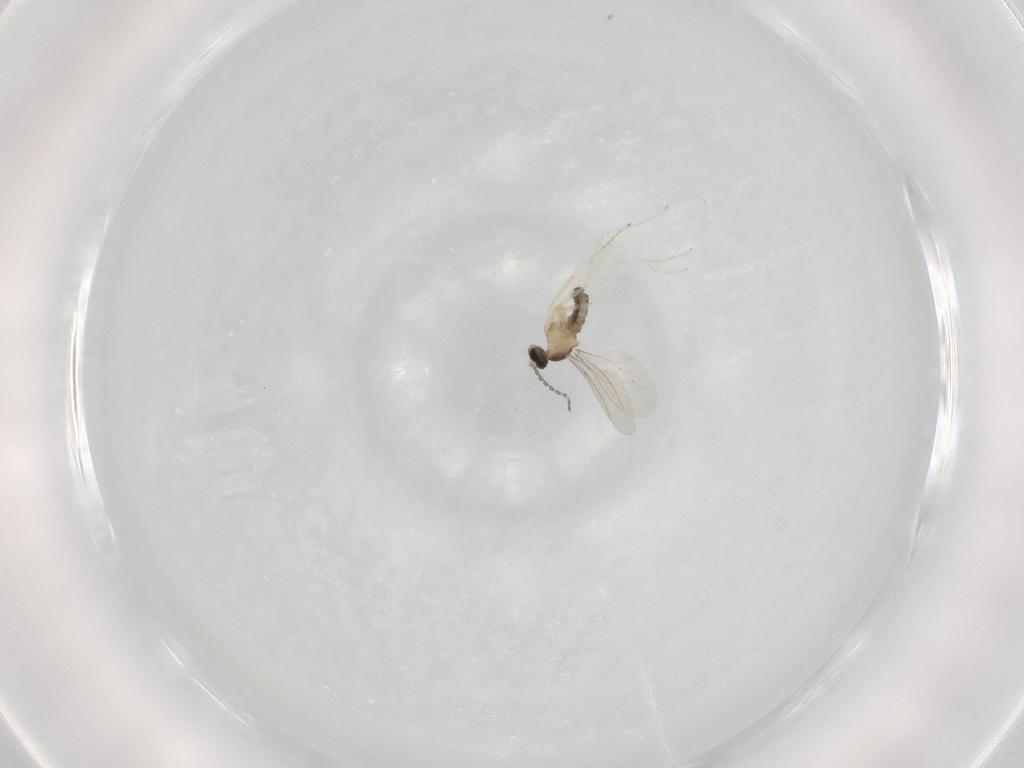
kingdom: Animalia
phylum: Arthropoda
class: Insecta
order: Diptera
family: Cecidomyiidae
